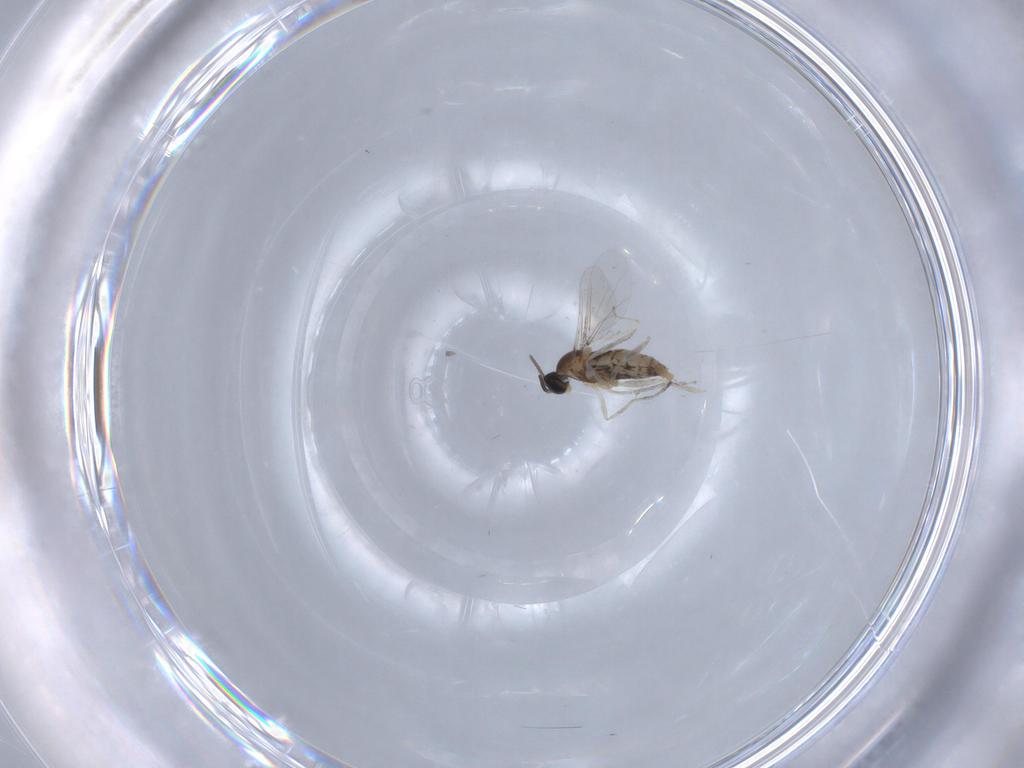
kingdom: Animalia
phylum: Arthropoda
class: Insecta
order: Diptera
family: Cecidomyiidae
